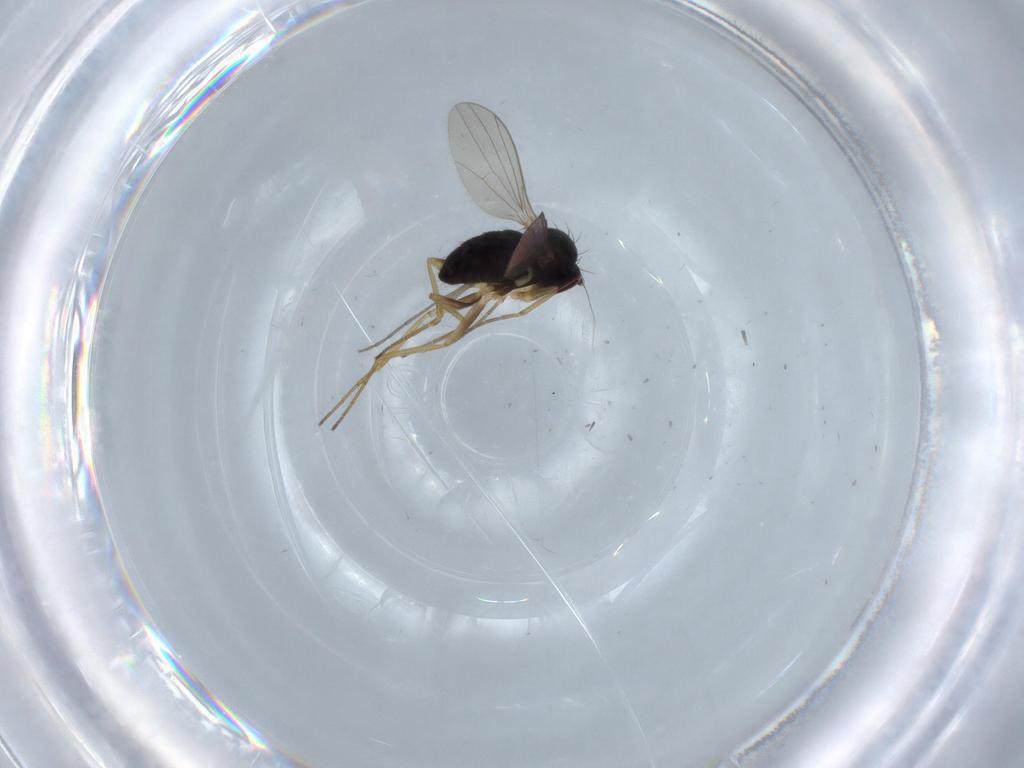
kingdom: Animalia
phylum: Arthropoda
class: Insecta
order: Diptera
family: Dolichopodidae
